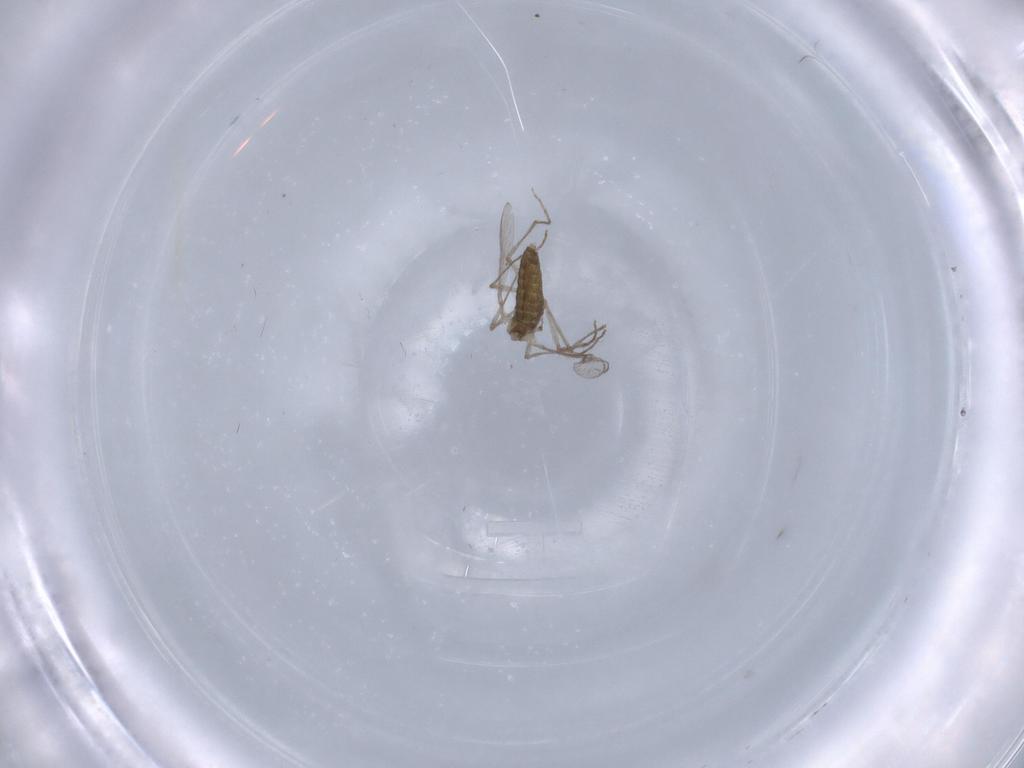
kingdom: Animalia
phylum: Arthropoda
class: Insecta
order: Diptera
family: Chironomidae
